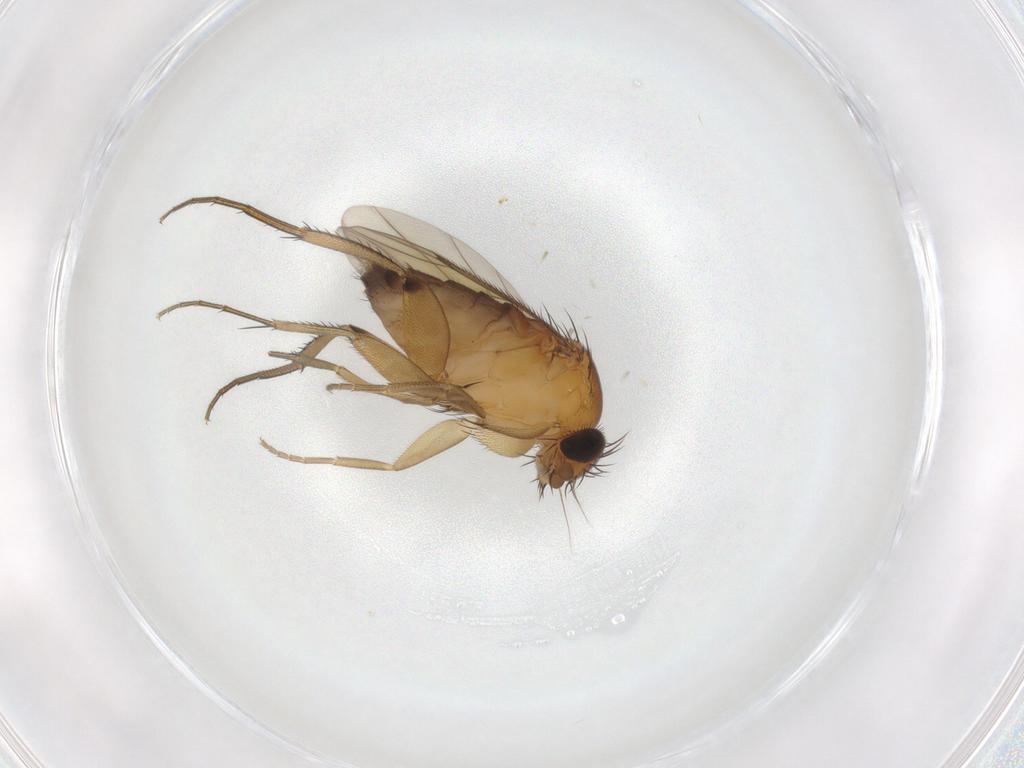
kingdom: Animalia
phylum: Arthropoda
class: Insecta
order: Diptera
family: Phoridae
